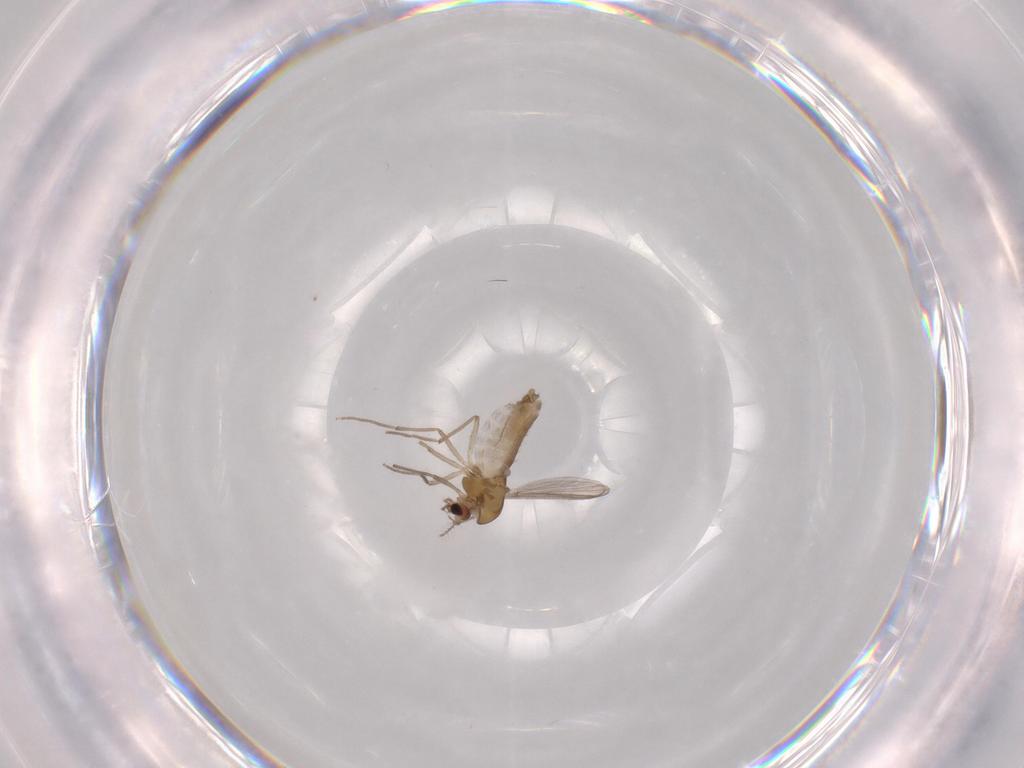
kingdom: Animalia
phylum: Arthropoda
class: Insecta
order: Diptera
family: Chironomidae
